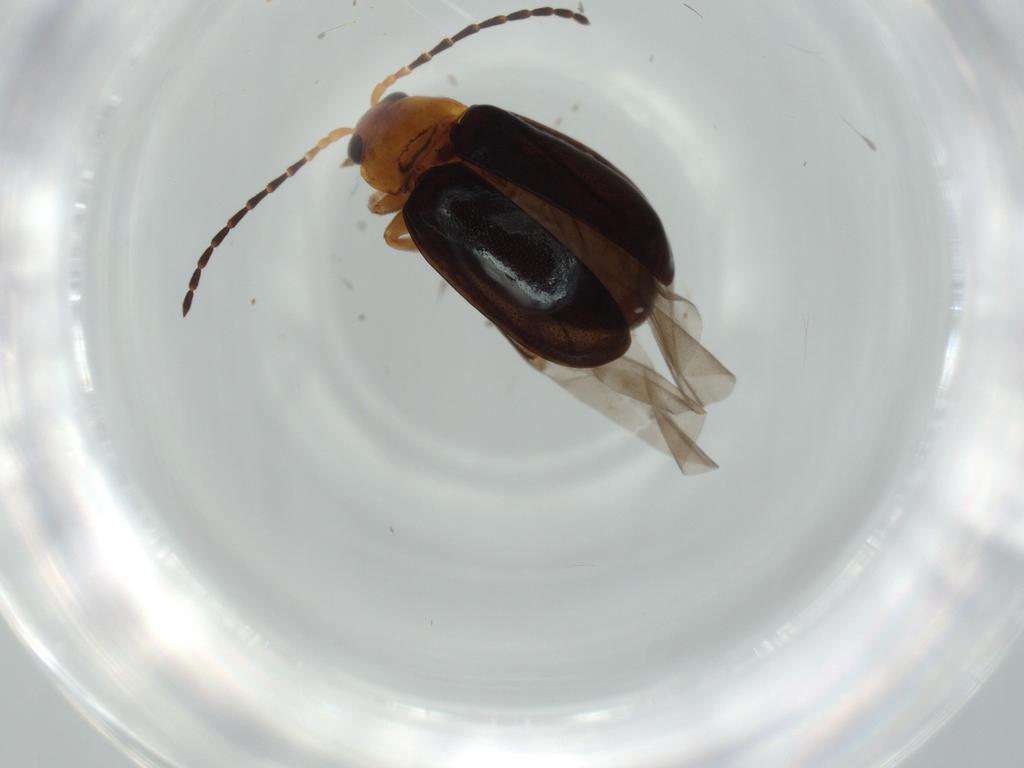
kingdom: Animalia
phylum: Arthropoda
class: Insecta
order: Coleoptera
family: Chrysomelidae
